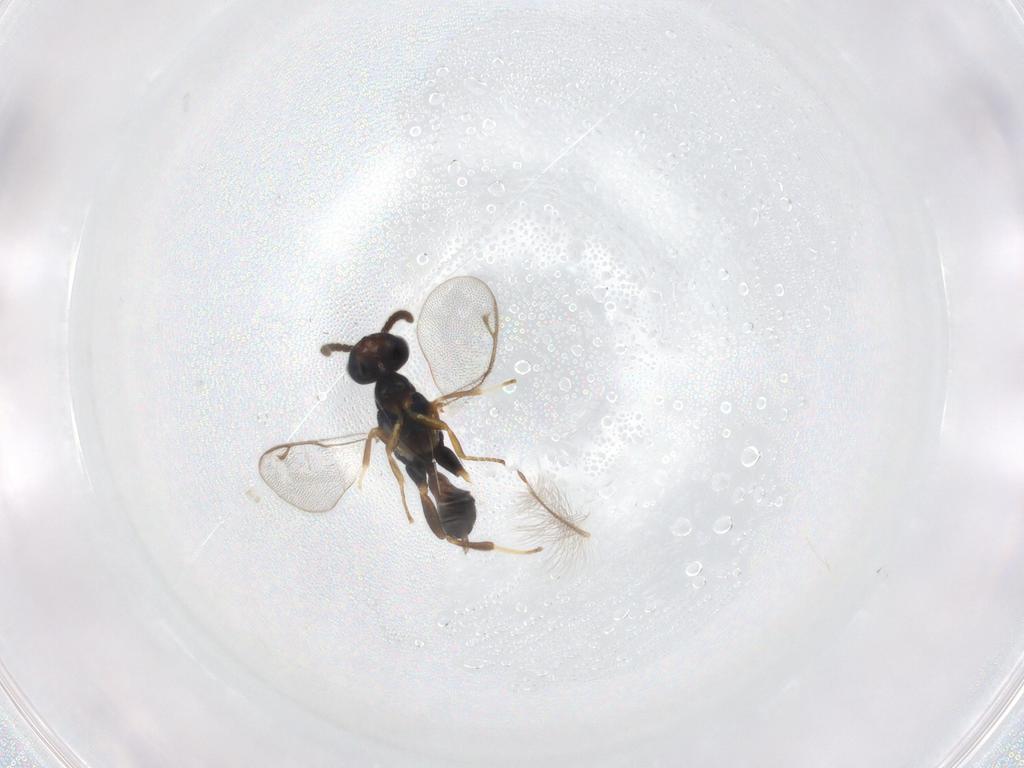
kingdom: Animalia
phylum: Arthropoda
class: Insecta
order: Hymenoptera
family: Cleonyminae
